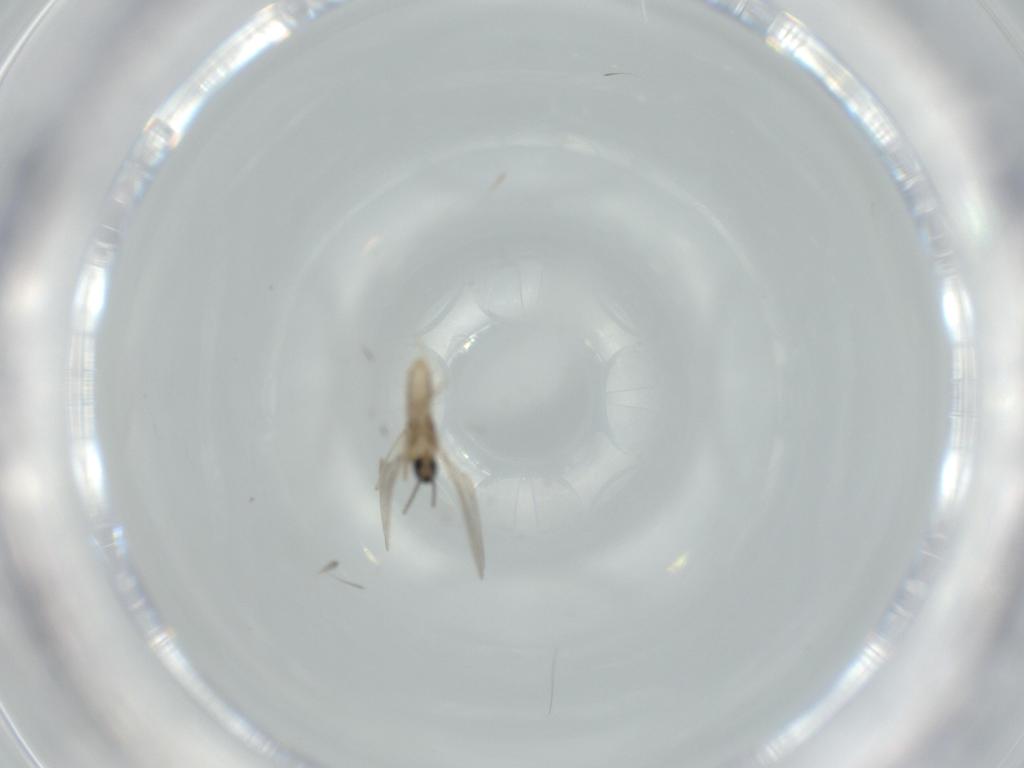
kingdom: Animalia
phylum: Arthropoda
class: Insecta
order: Diptera
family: Cecidomyiidae
